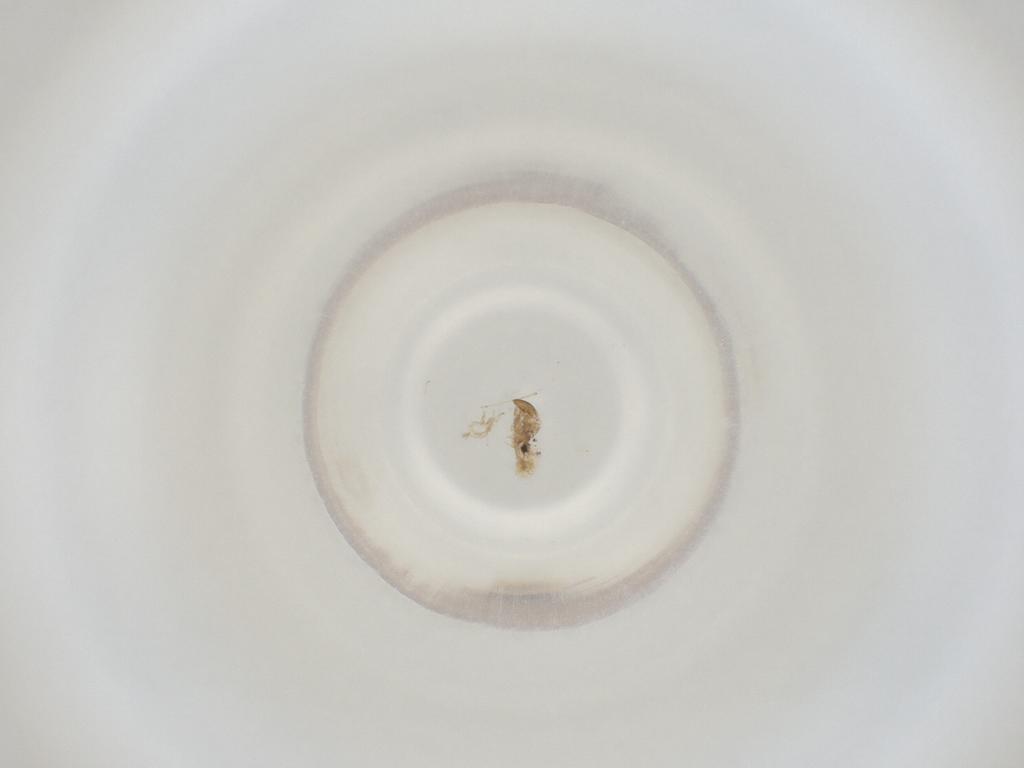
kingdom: Animalia
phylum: Arthropoda
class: Insecta
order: Diptera
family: Cecidomyiidae
